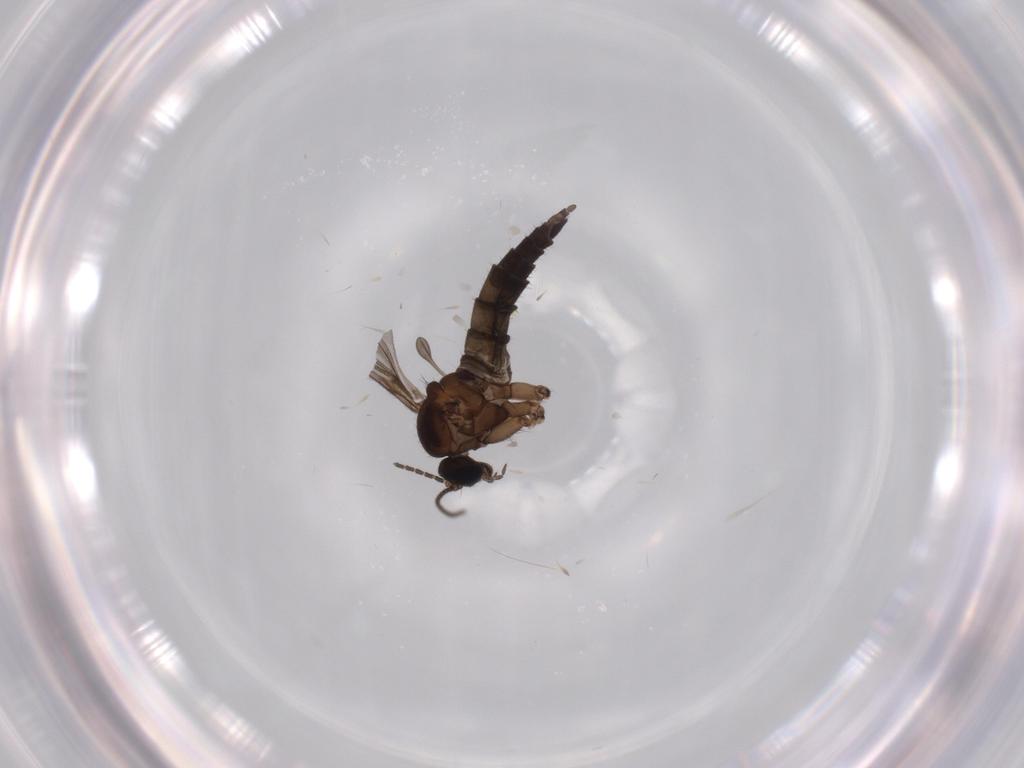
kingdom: Animalia
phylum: Arthropoda
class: Insecta
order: Diptera
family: Sciaridae
